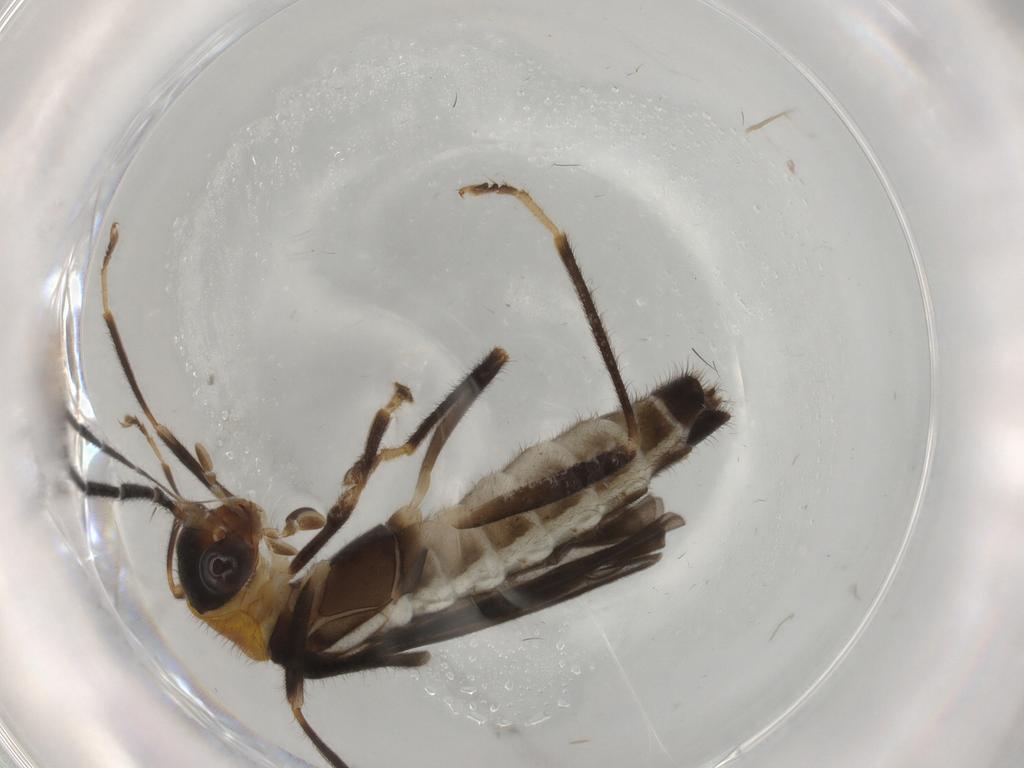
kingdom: Animalia
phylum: Arthropoda
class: Insecta
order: Coleoptera
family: Cantharidae
